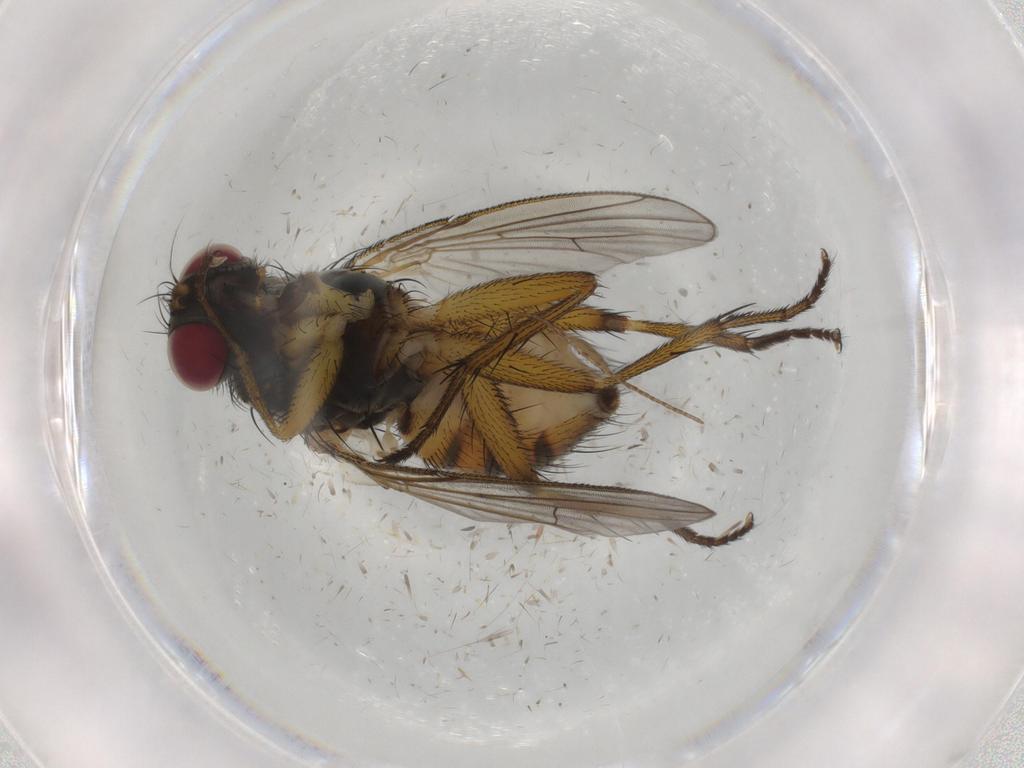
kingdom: Animalia
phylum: Arthropoda
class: Insecta
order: Diptera
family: Muscidae
